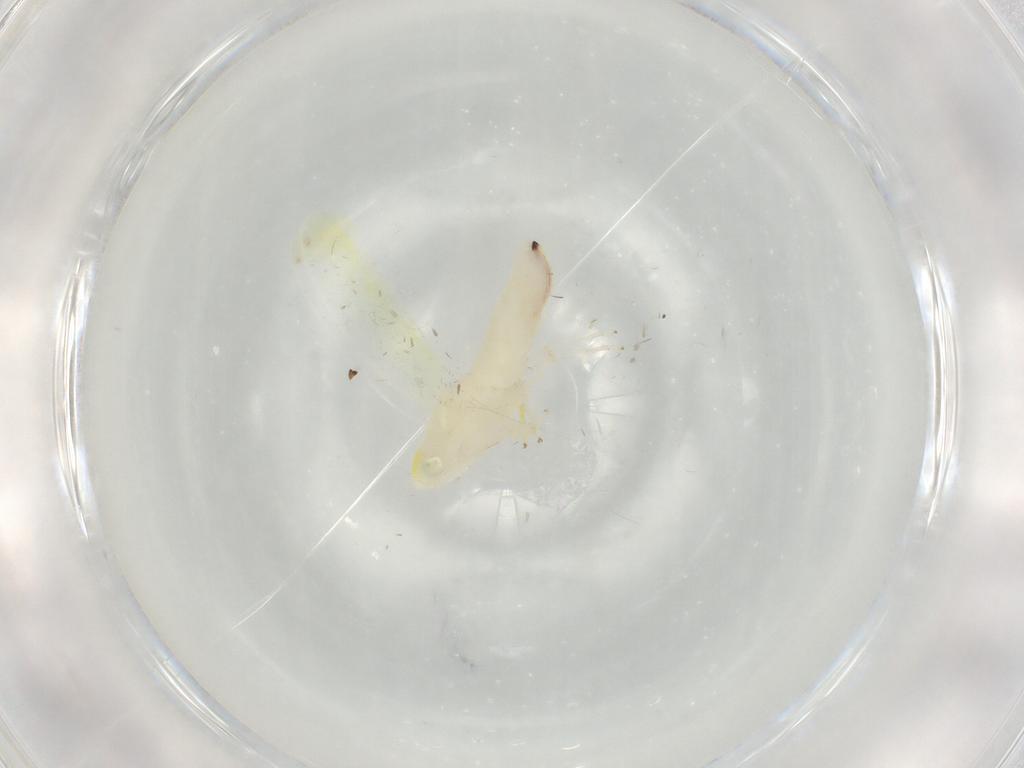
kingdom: Animalia
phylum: Arthropoda
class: Insecta
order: Hemiptera
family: Cicadellidae
